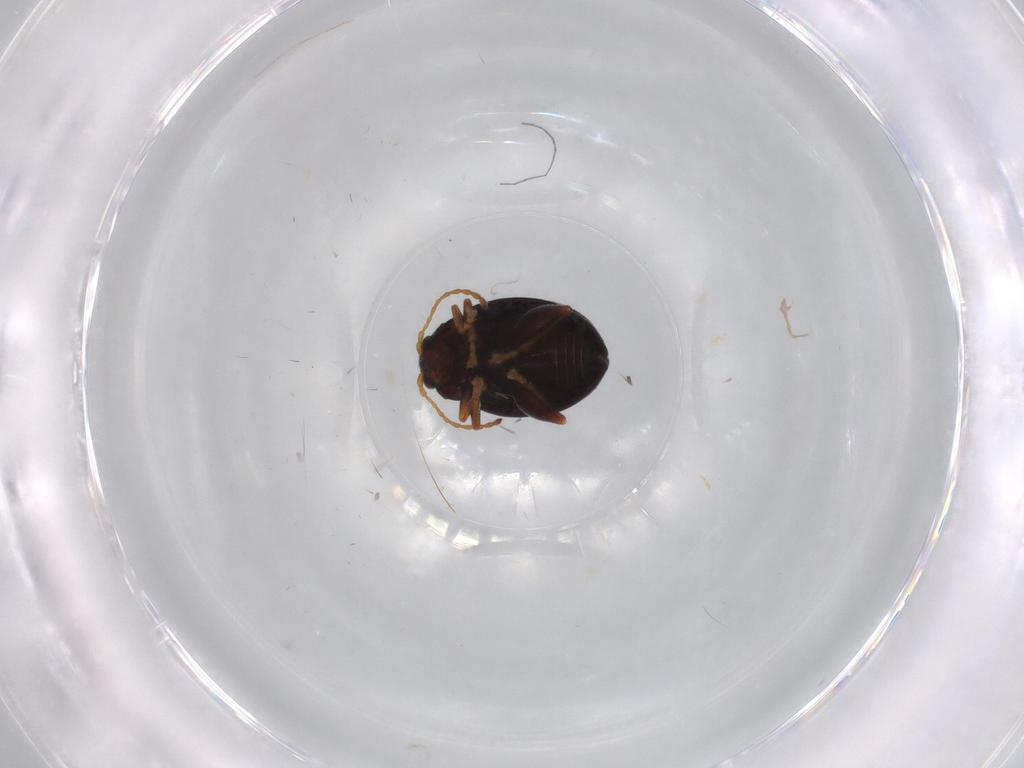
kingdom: Animalia
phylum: Arthropoda
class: Insecta
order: Coleoptera
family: Chrysomelidae
